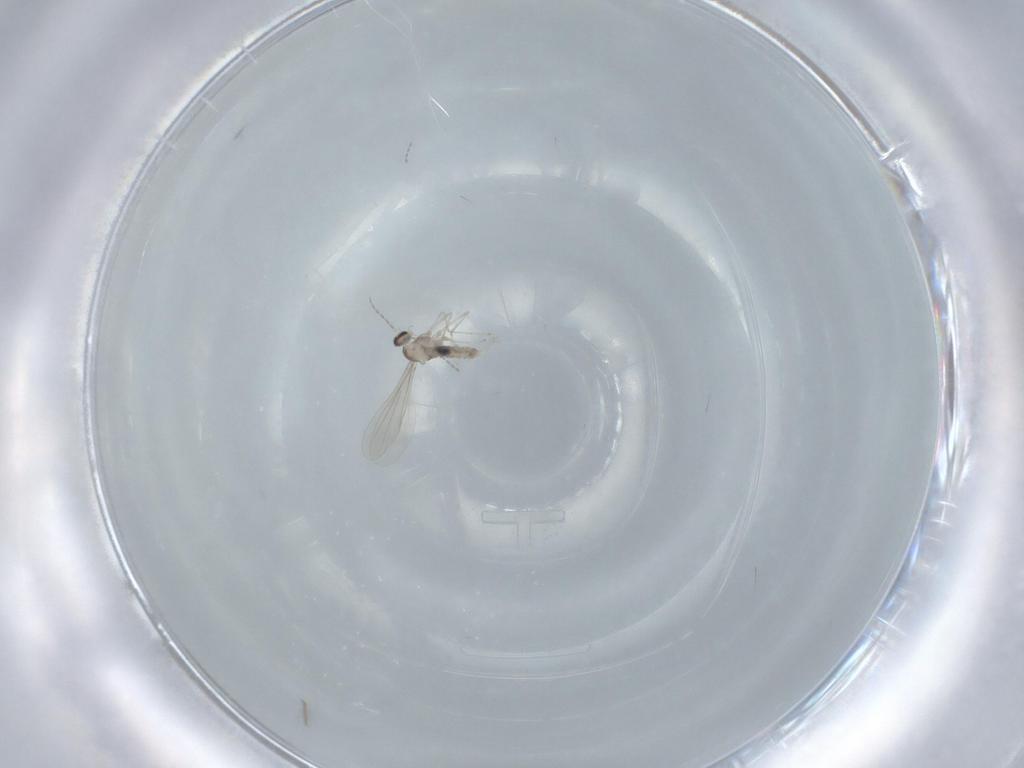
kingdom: Animalia
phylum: Arthropoda
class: Insecta
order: Diptera
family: Cecidomyiidae
